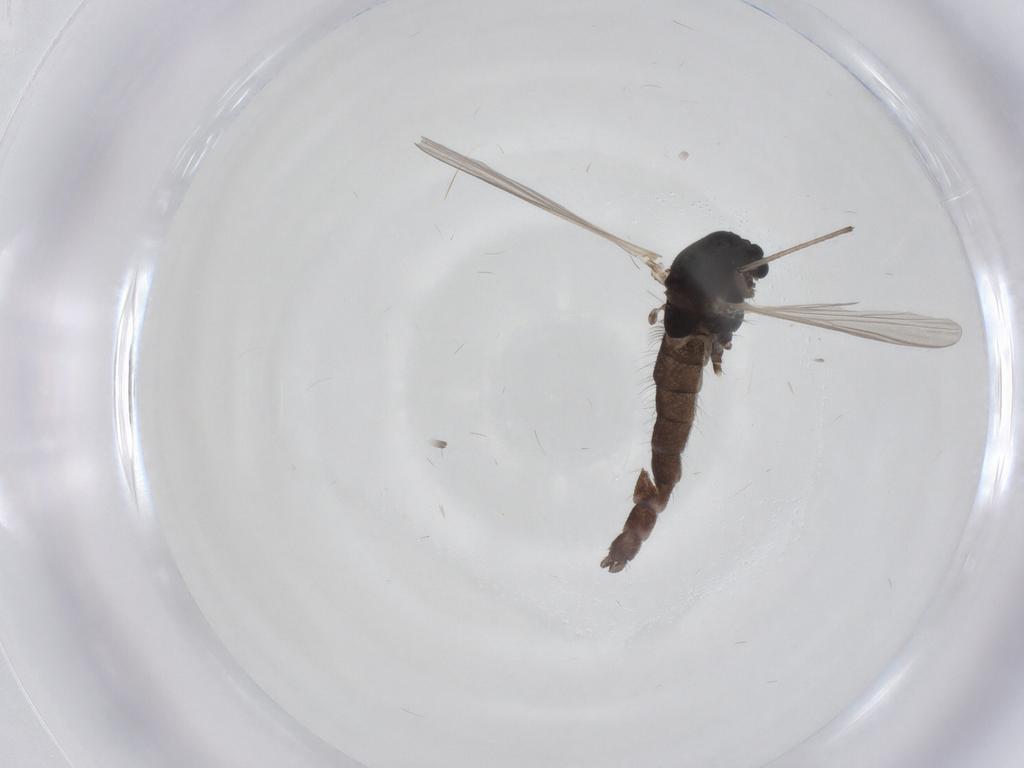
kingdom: Animalia
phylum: Arthropoda
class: Insecta
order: Diptera
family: Chironomidae
